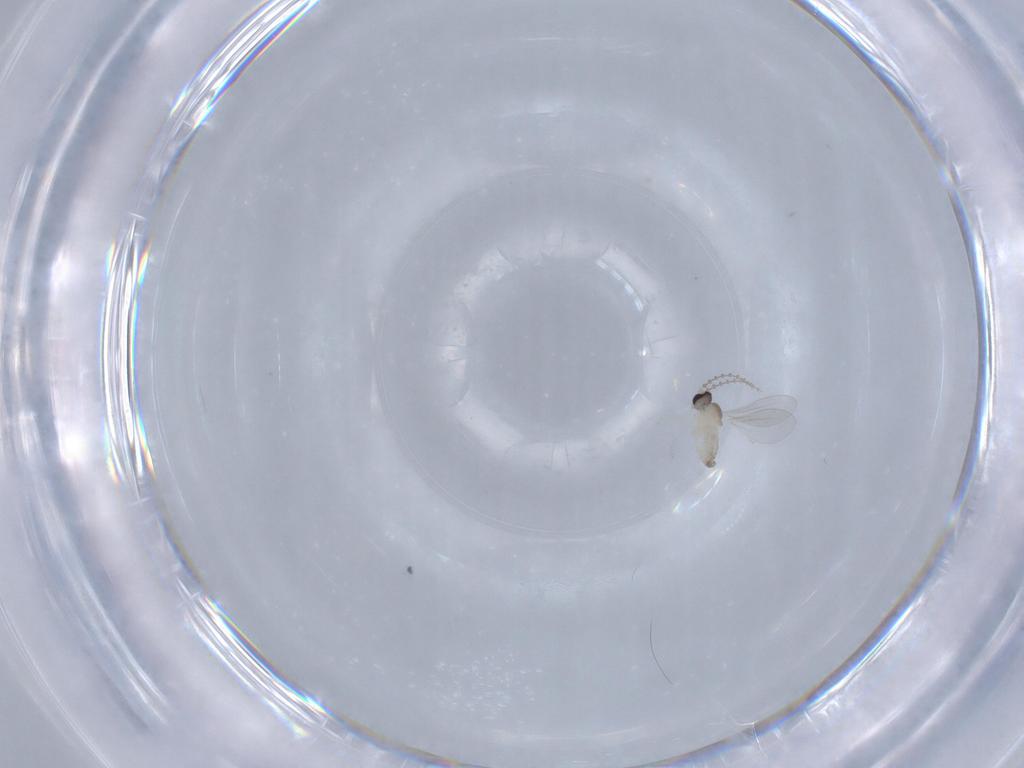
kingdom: Animalia
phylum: Arthropoda
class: Insecta
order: Diptera
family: Cecidomyiidae
